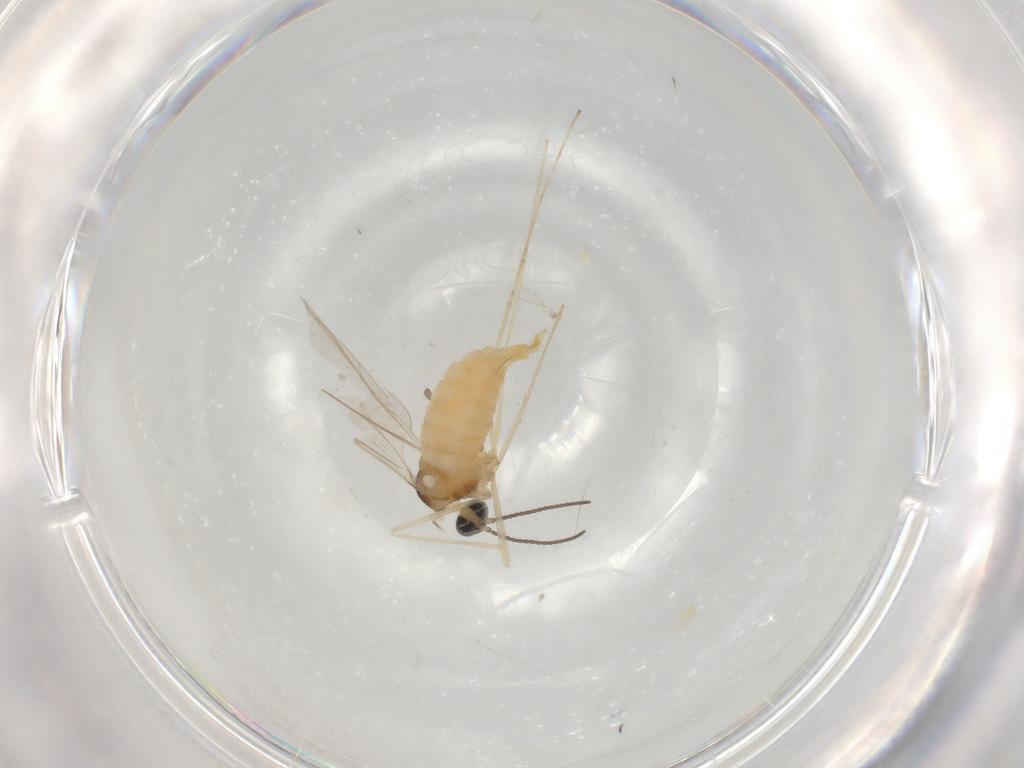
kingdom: Animalia
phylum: Arthropoda
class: Insecta
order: Diptera
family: Cecidomyiidae
